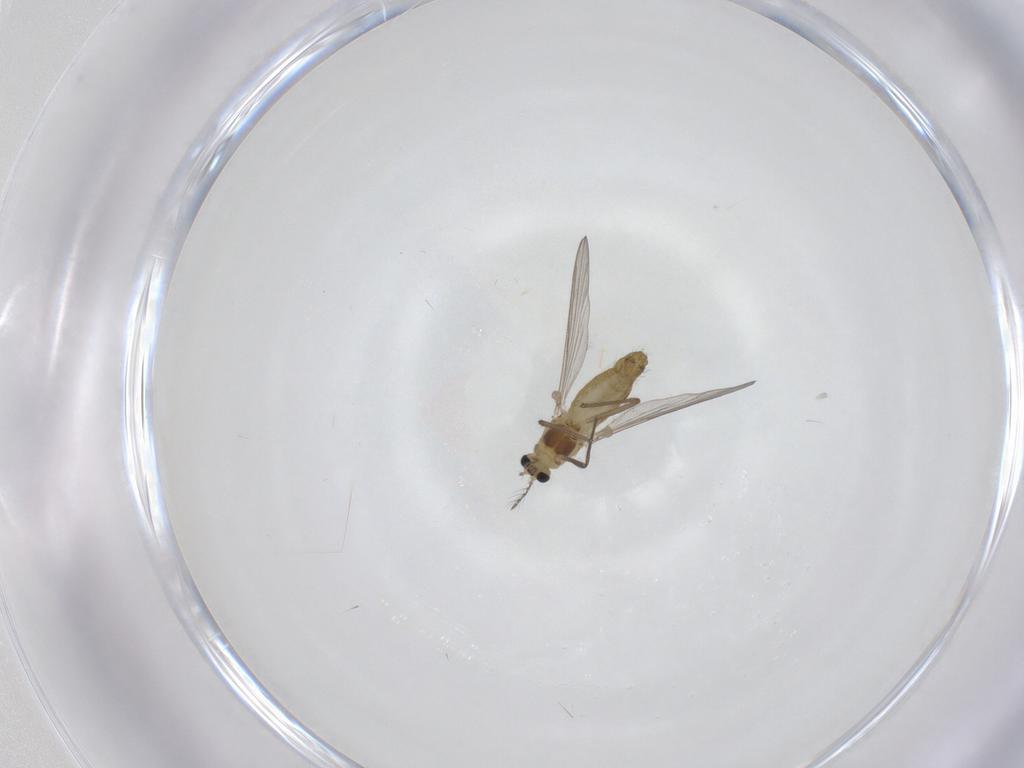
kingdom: Animalia
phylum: Arthropoda
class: Insecta
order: Diptera
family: Chironomidae
